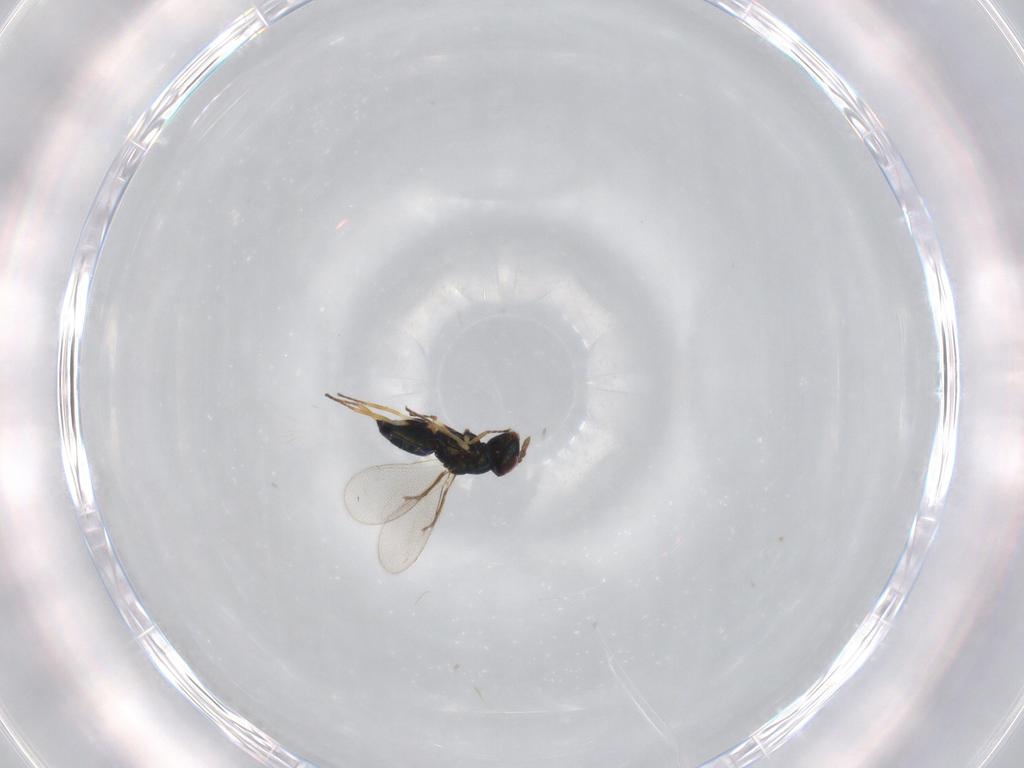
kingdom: Animalia
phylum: Arthropoda
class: Insecta
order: Hymenoptera
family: Eulophidae
